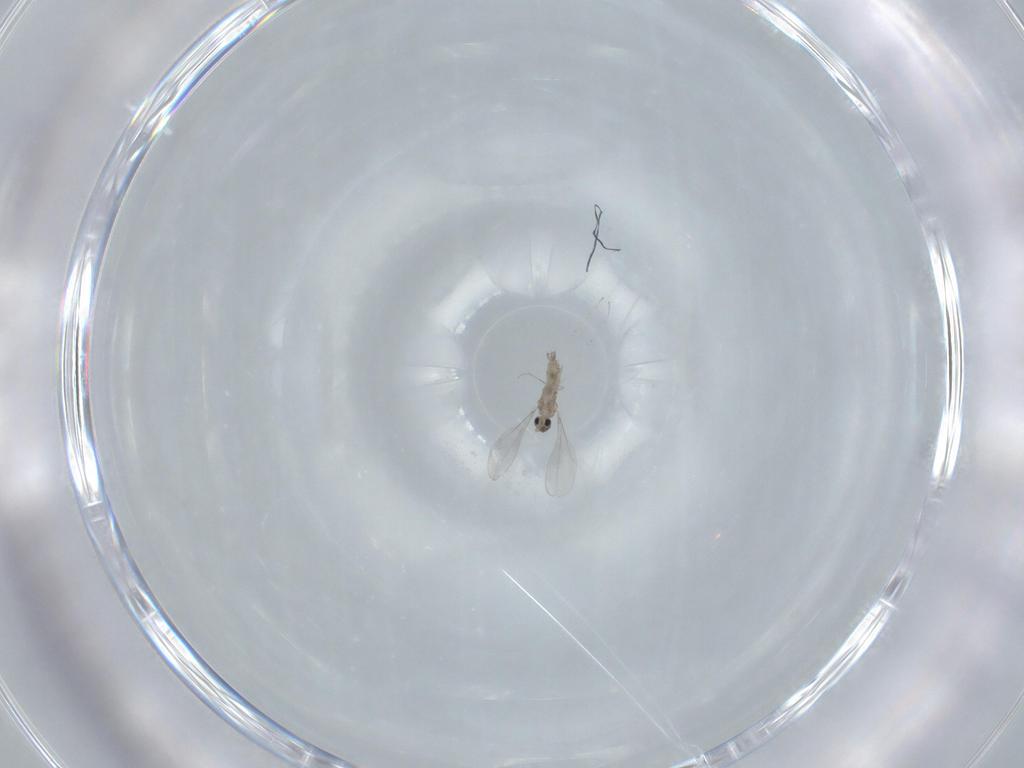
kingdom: Animalia
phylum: Arthropoda
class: Insecta
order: Diptera
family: Cecidomyiidae
